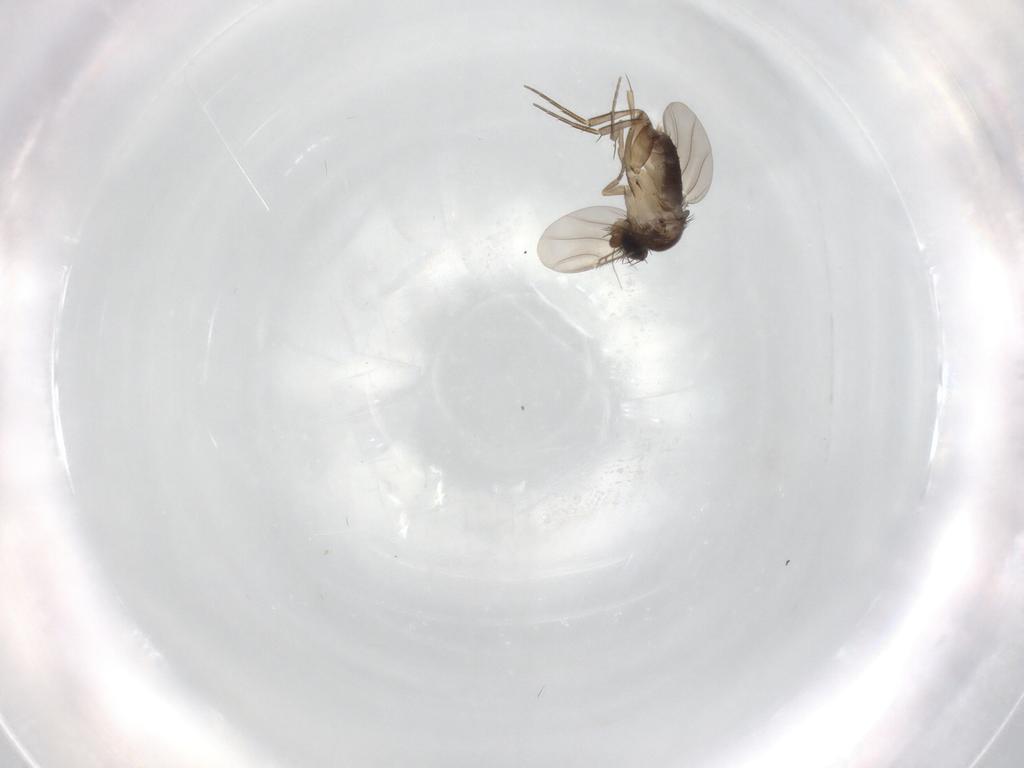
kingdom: Animalia
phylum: Arthropoda
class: Insecta
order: Diptera
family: Phoridae
